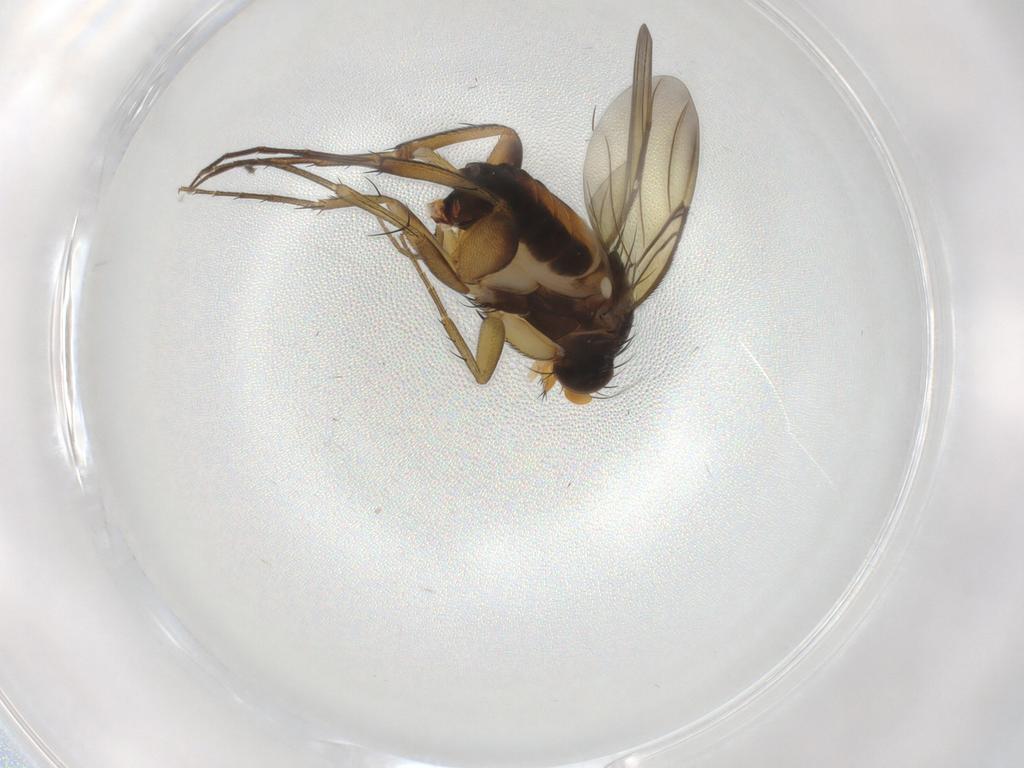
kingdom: Animalia
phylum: Arthropoda
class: Insecta
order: Diptera
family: Phoridae
